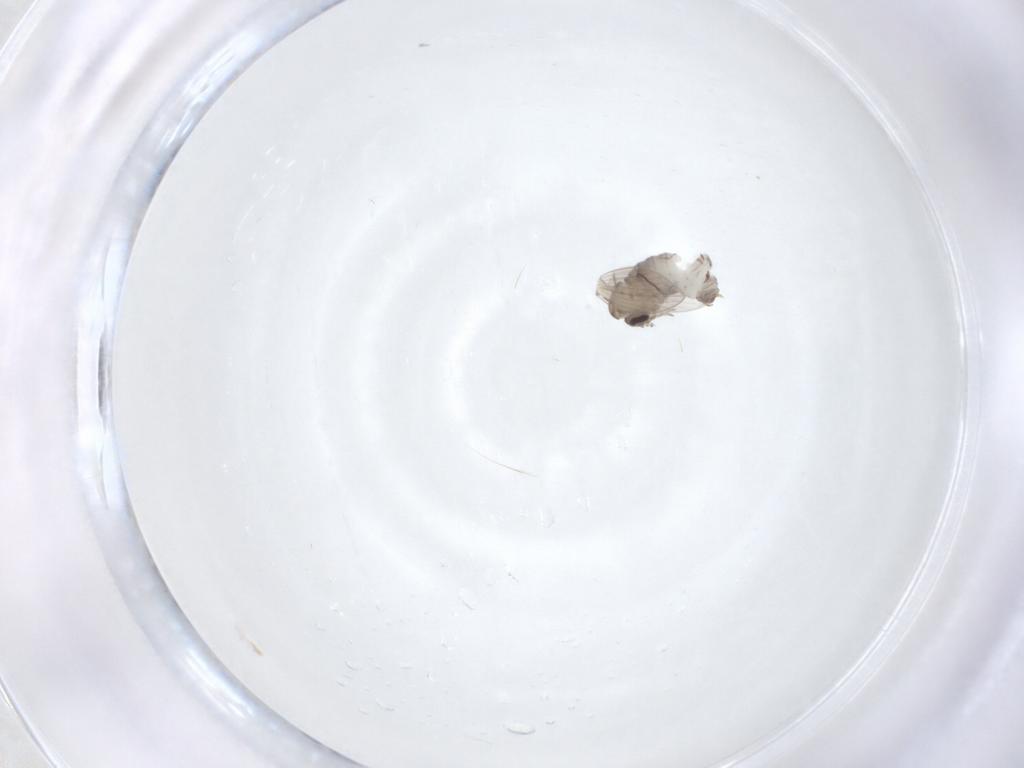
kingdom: Animalia
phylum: Arthropoda
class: Insecta
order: Diptera
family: Psychodidae
